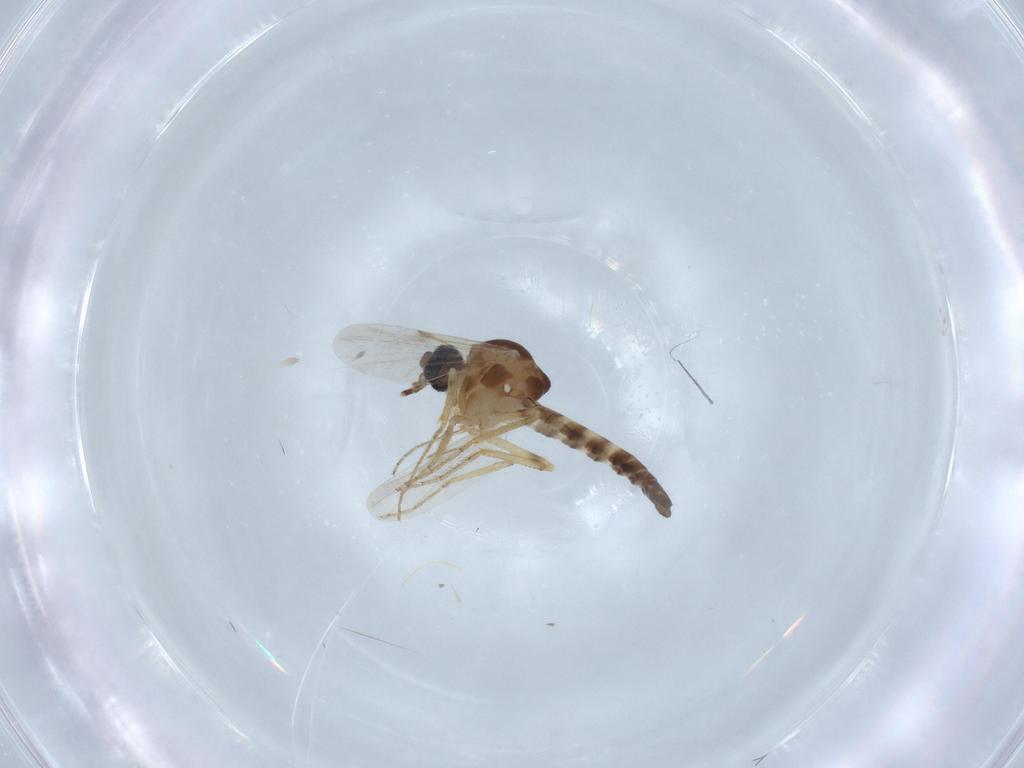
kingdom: Animalia
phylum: Arthropoda
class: Insecta
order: Diptera
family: Ceratopogonidae
